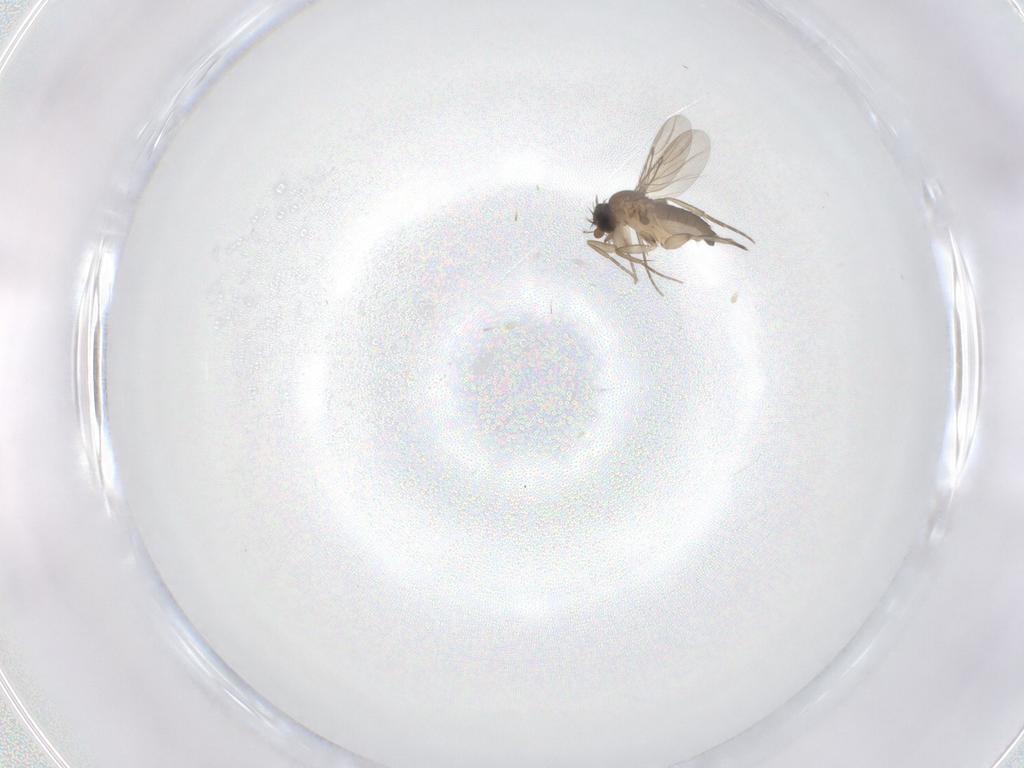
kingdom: Animalia
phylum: Arthropoda
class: Insecta
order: Diptera
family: Phoridae
